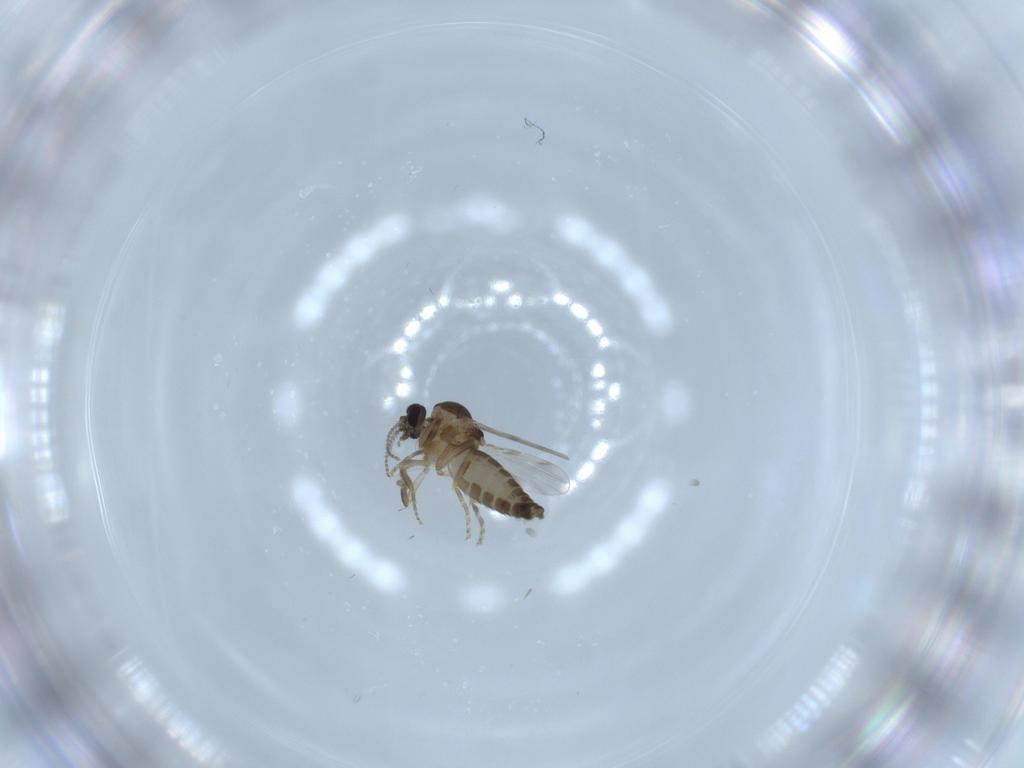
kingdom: Animalia
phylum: Arthropoda
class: Insecta
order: Diptera
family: Ceratopogonidae
